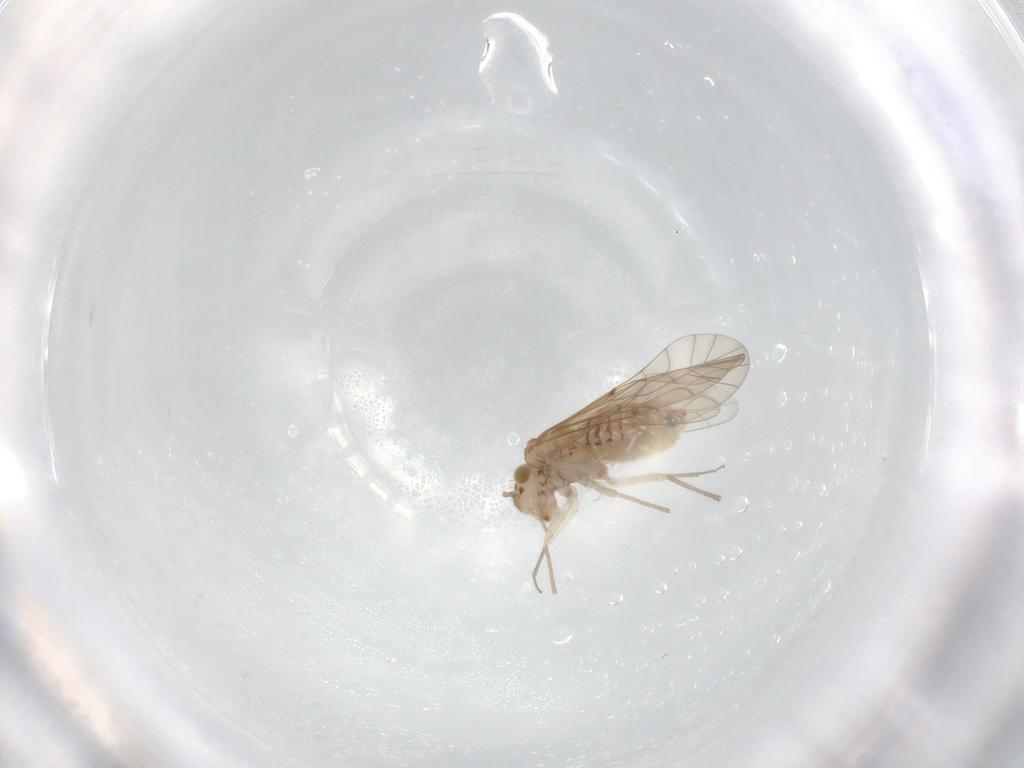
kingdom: Animalia
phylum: Arthropoda
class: Insecta
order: Psocodea
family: Lachesillidae
